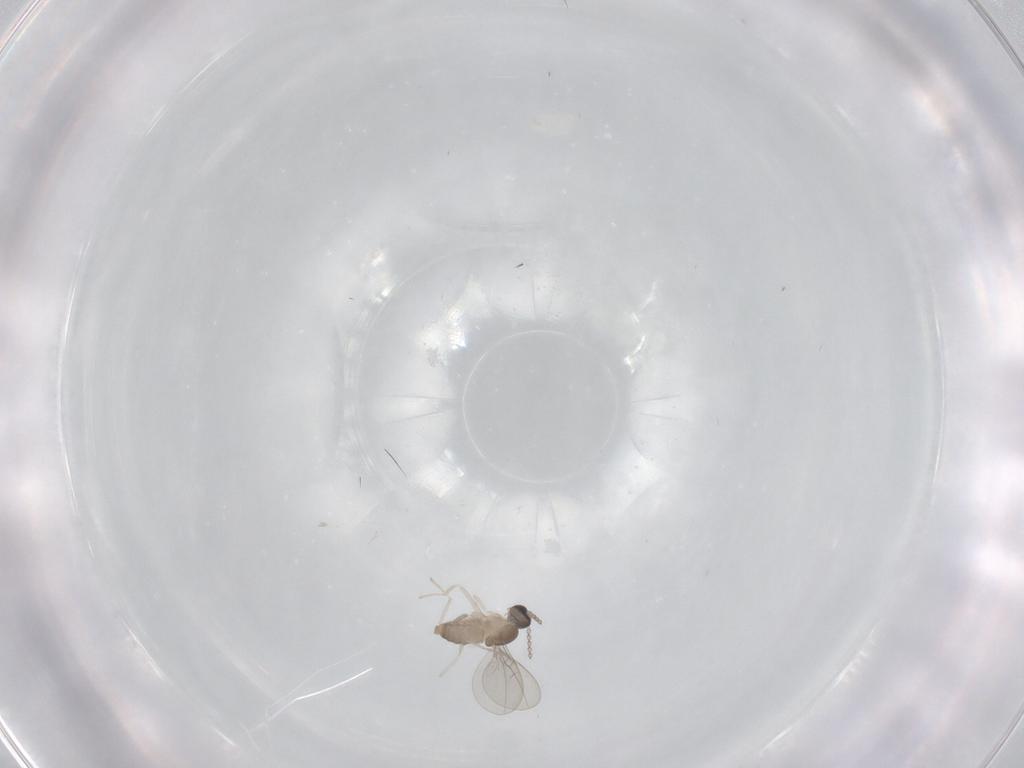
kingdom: Animalia
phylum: Arthropoda
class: Insecta
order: Diptera
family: Cecidomyiidae
